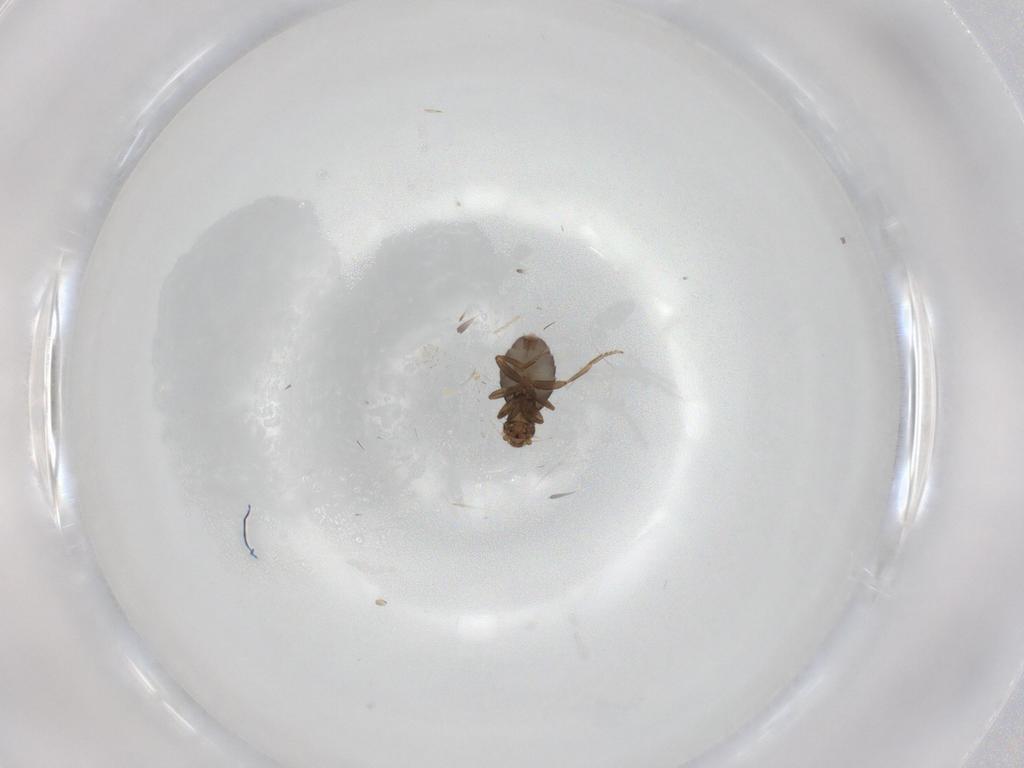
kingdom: Animalia
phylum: Arthropoda
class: Insecta
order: Diptera
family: Cecidomyiidae
